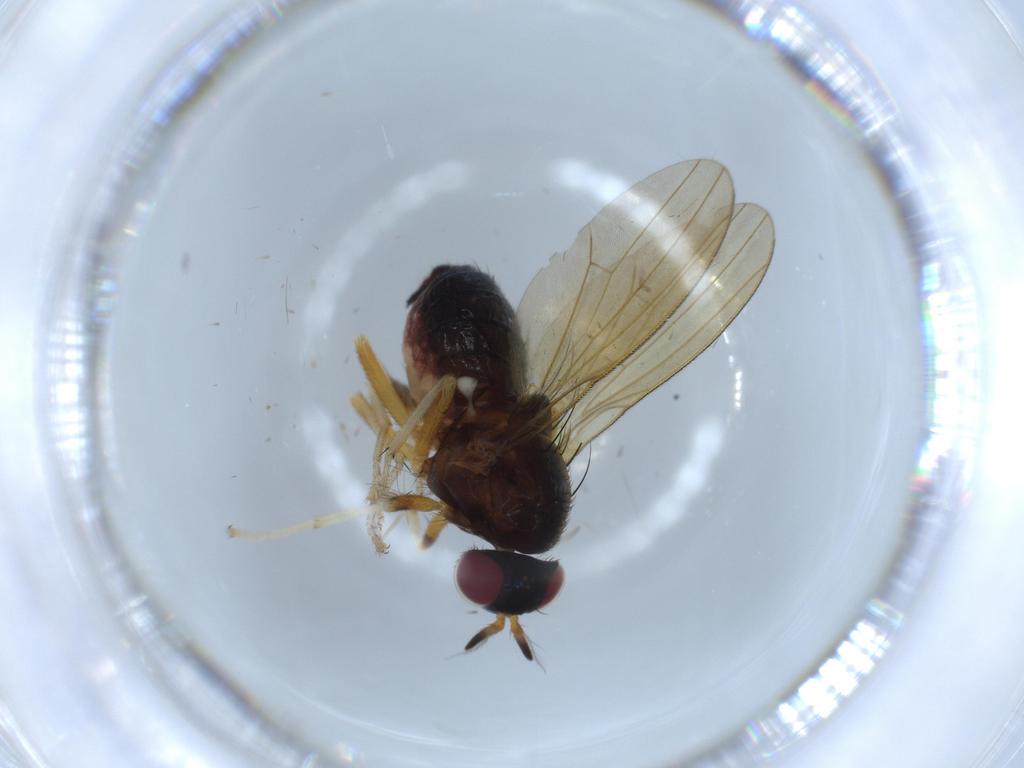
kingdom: Animalia
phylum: Arthropoda
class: Insecta
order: Diptera
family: Lauxaniidae
